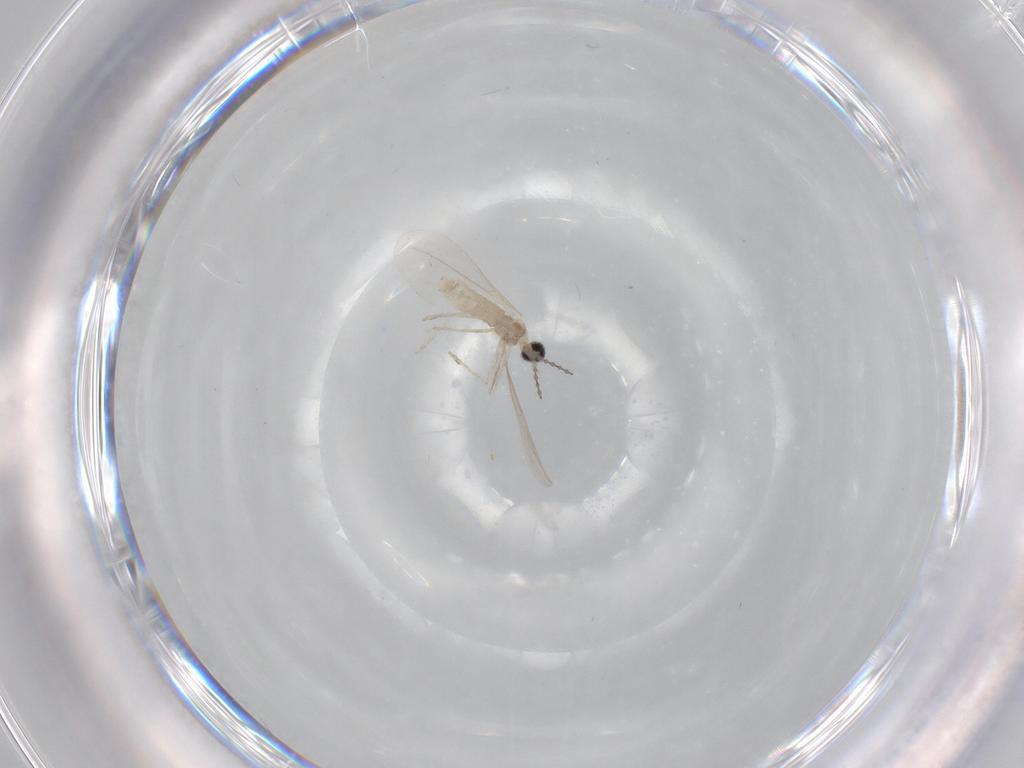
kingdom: Animalia
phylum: Arthropoda
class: Insecta
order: Diptera
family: Cecidomyiidae
